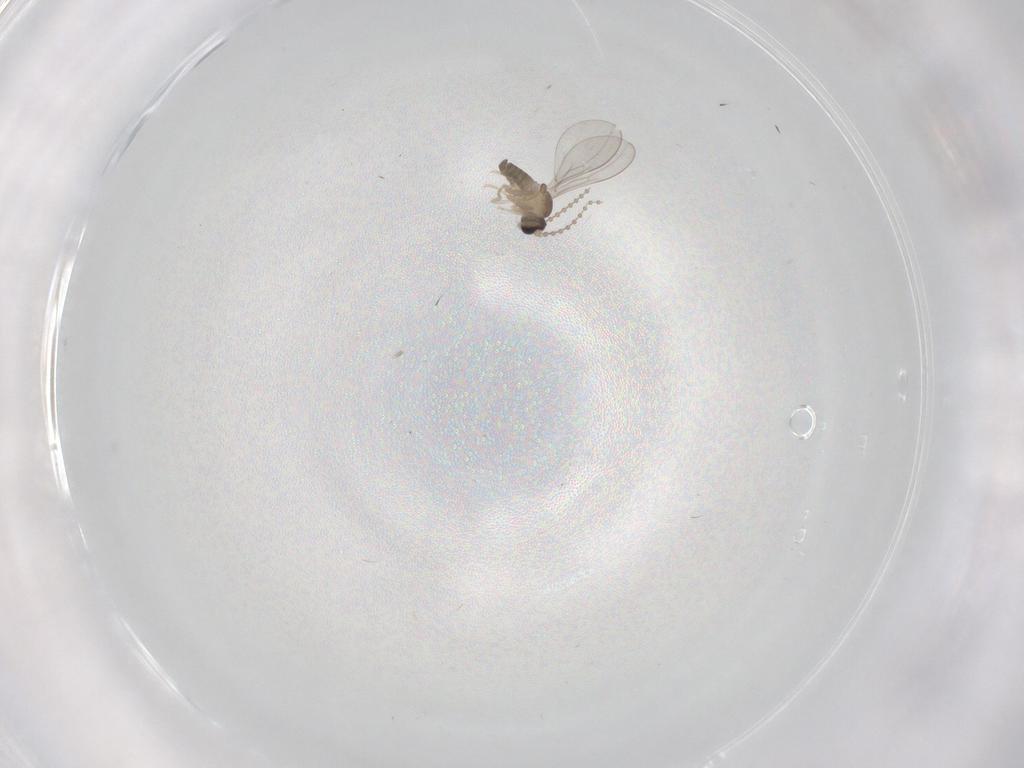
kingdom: Animalia
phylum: Arthropoda
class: Insecta
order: Diptera
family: Cecidomyiidae
